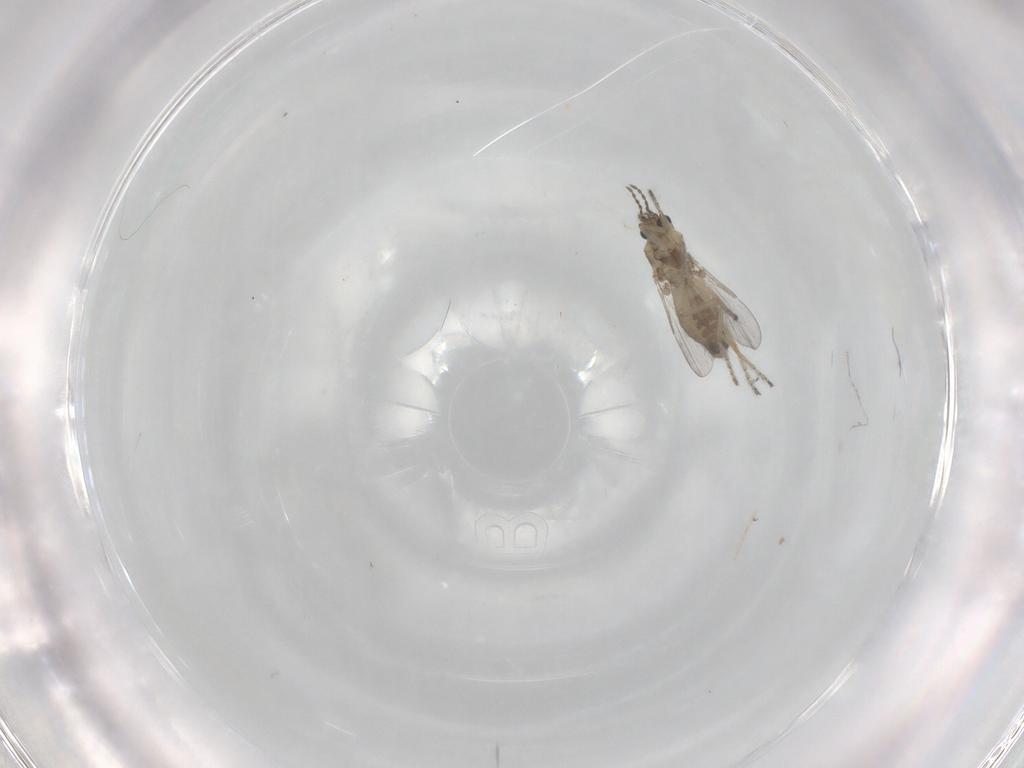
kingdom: Animalia
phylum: Arthropoda
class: Insecta
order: Diptera
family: Ceratopogonidae
